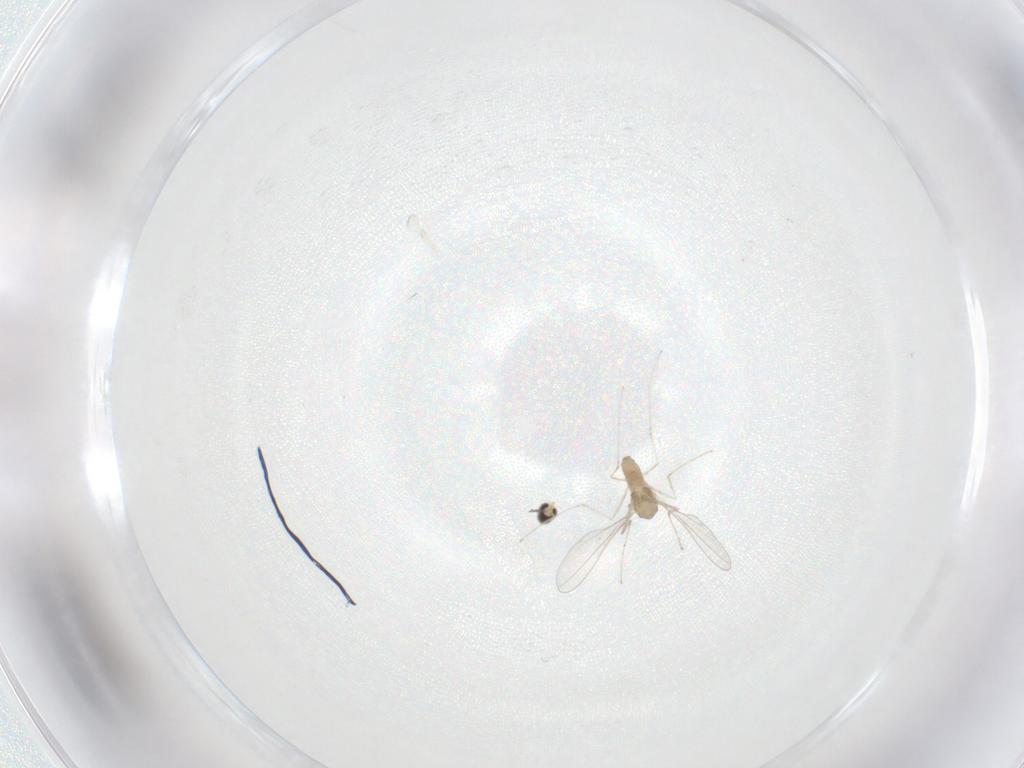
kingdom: Animalia
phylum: Arthropoda
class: Insecta
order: Diptera
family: Cecidomyiidae
